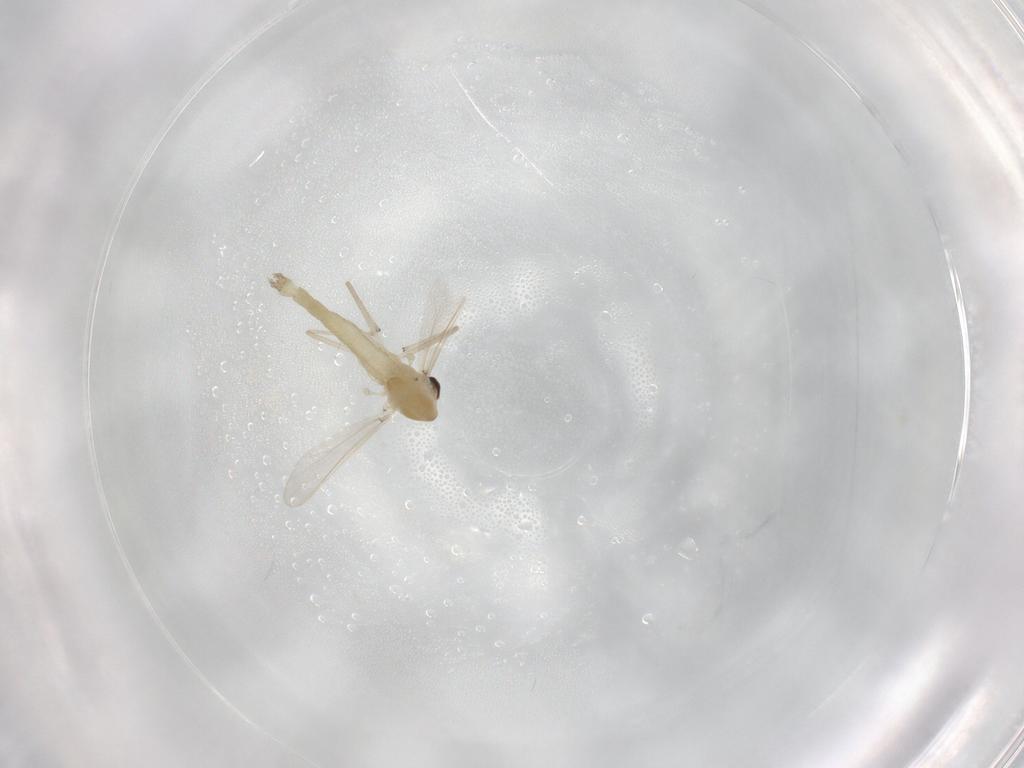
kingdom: Animalia
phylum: Arthropoda
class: Insecta
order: Diptera
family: Chironomidae
